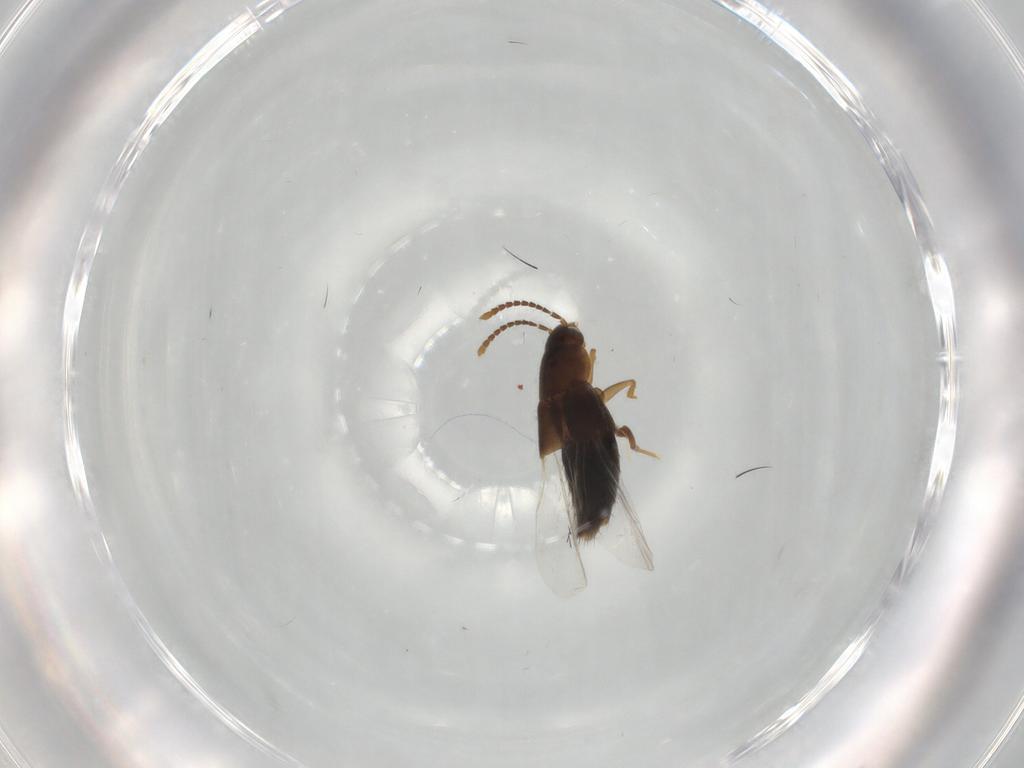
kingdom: Animalia
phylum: Arthropoda
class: Insecta
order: Coleoptera
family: Staphylinidae
